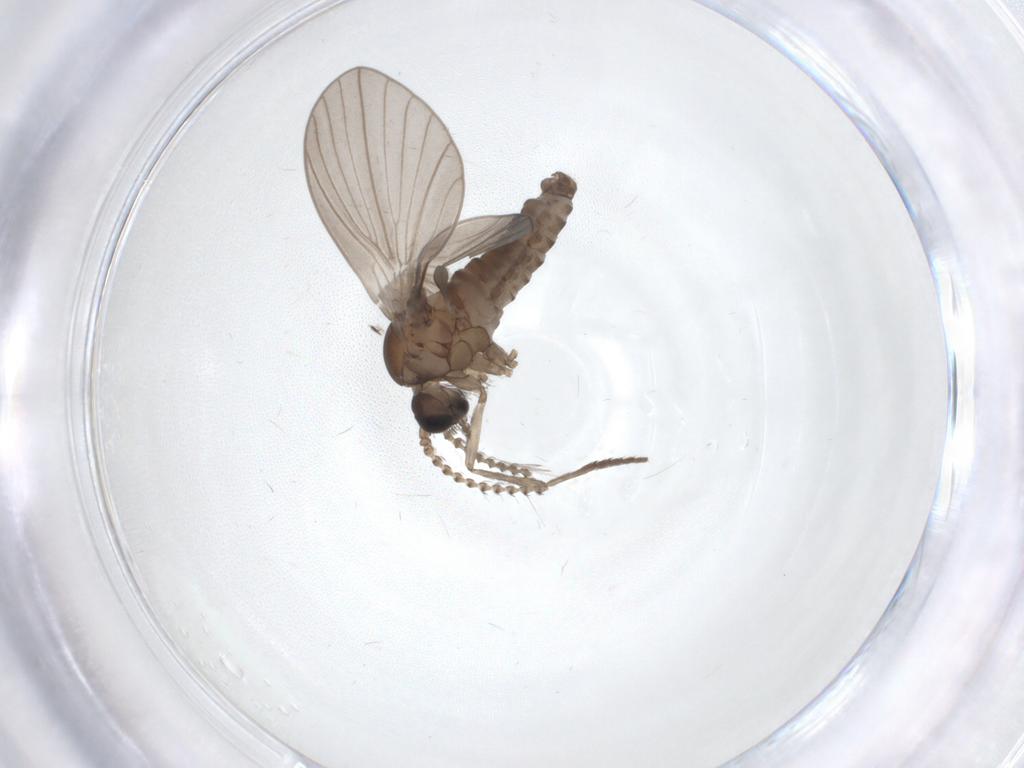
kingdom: Animalia
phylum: Arthropoda
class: Insecta
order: Diptera
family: Psychodidae
